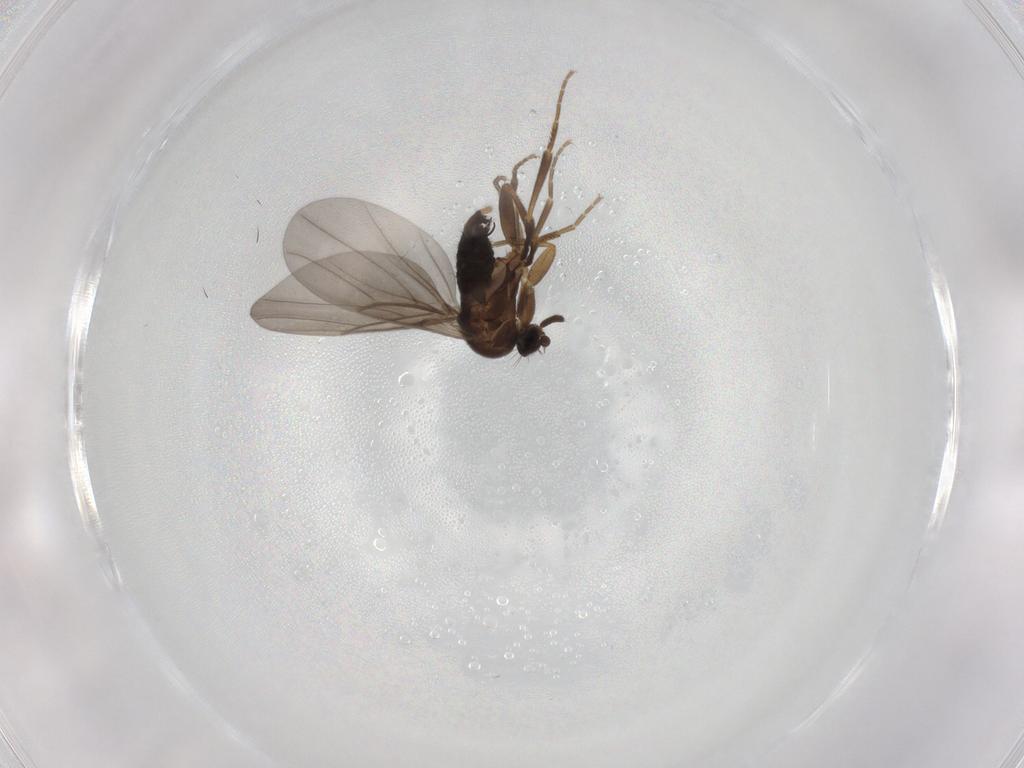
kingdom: Animalia
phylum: Arthropoda
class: Insecta
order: Diptera
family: Phoridae
